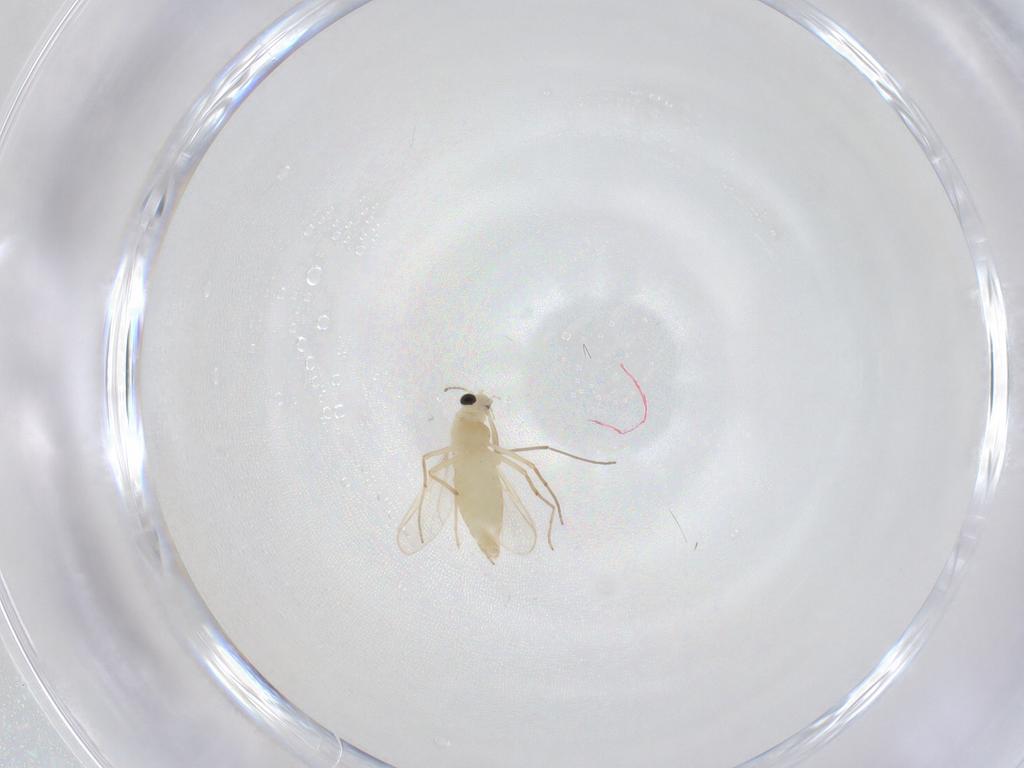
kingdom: Animalia
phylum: Arthropoda
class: Insecta
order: Diptera
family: Chironomidae
